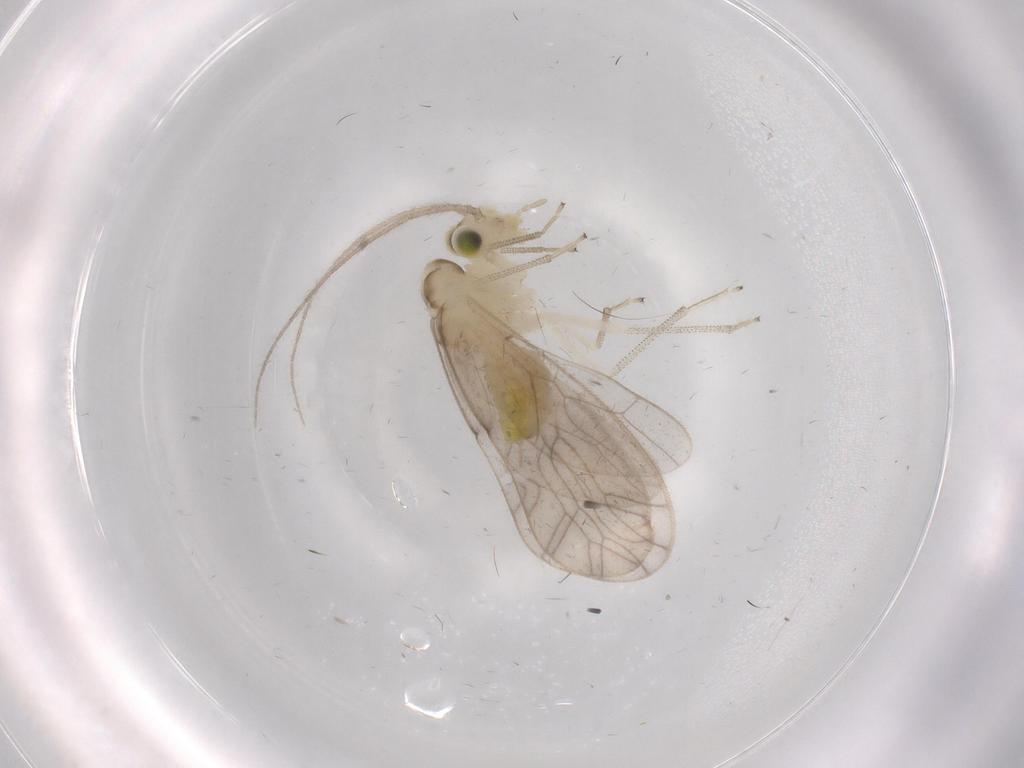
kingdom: Animalia
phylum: Arthropoda
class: Insecta
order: Psocodea
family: Caeciliusidae
